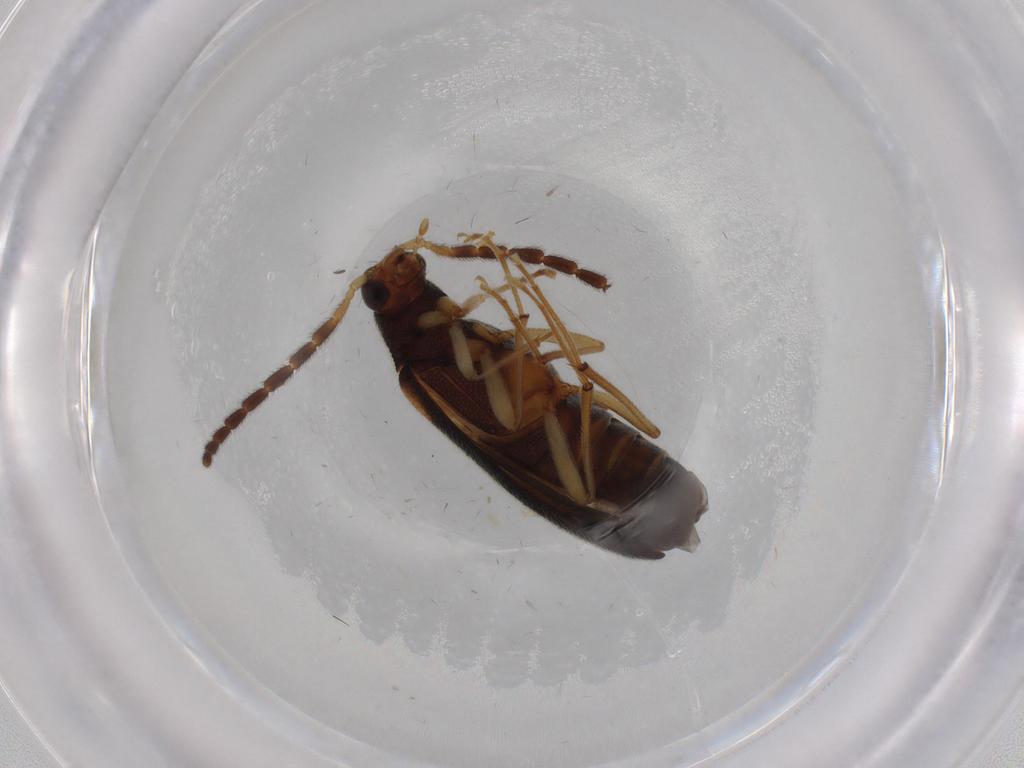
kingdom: Animalia
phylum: Arthropoda
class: Insecta
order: Coleoptera
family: Melandryidae
